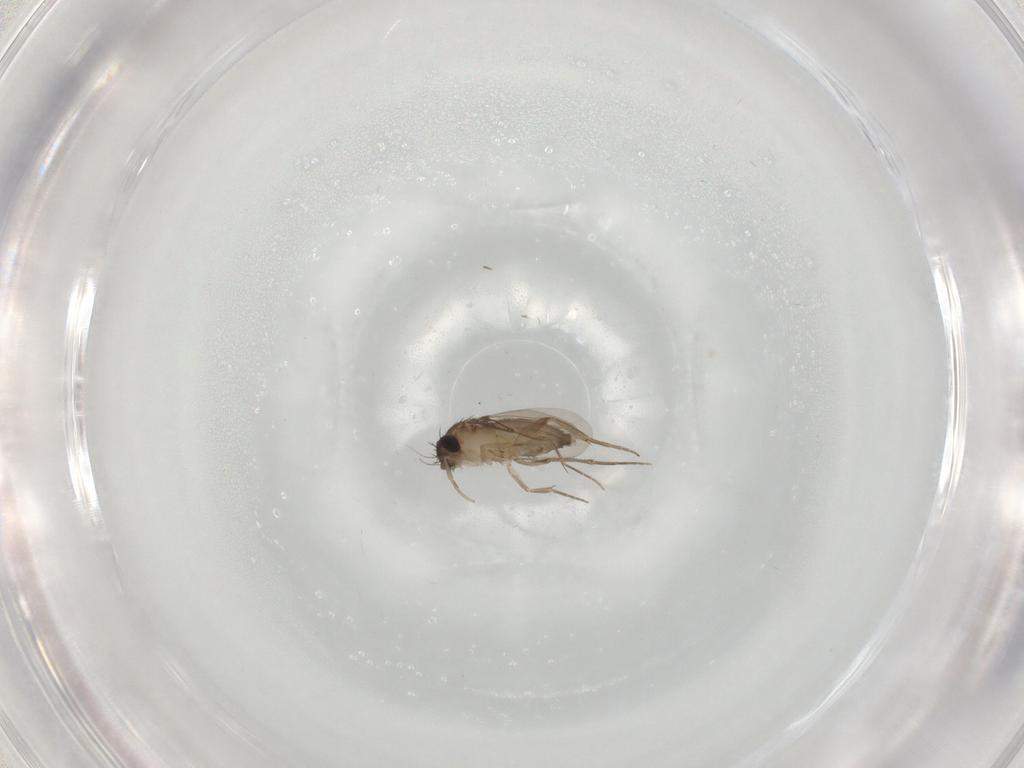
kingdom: Animalia
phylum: Arthropoda
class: Insecta
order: Diptera
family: Phoridae
